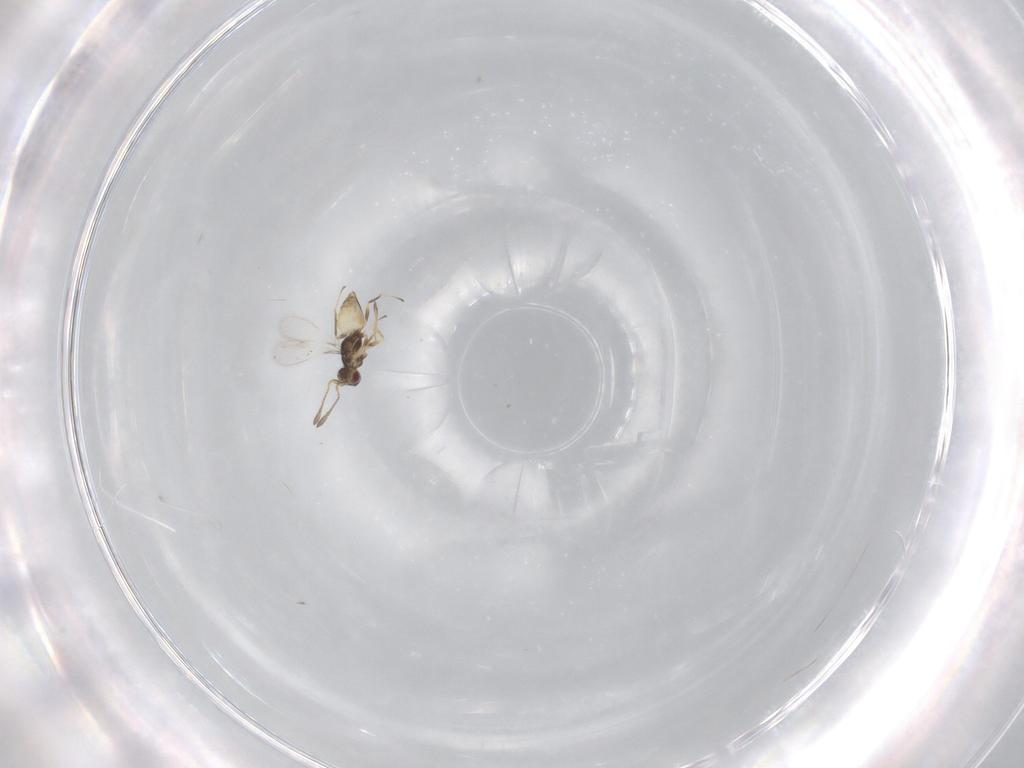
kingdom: Animalia
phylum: Arthropoda
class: Insecta
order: Hymenoptera
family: Mymaridae
